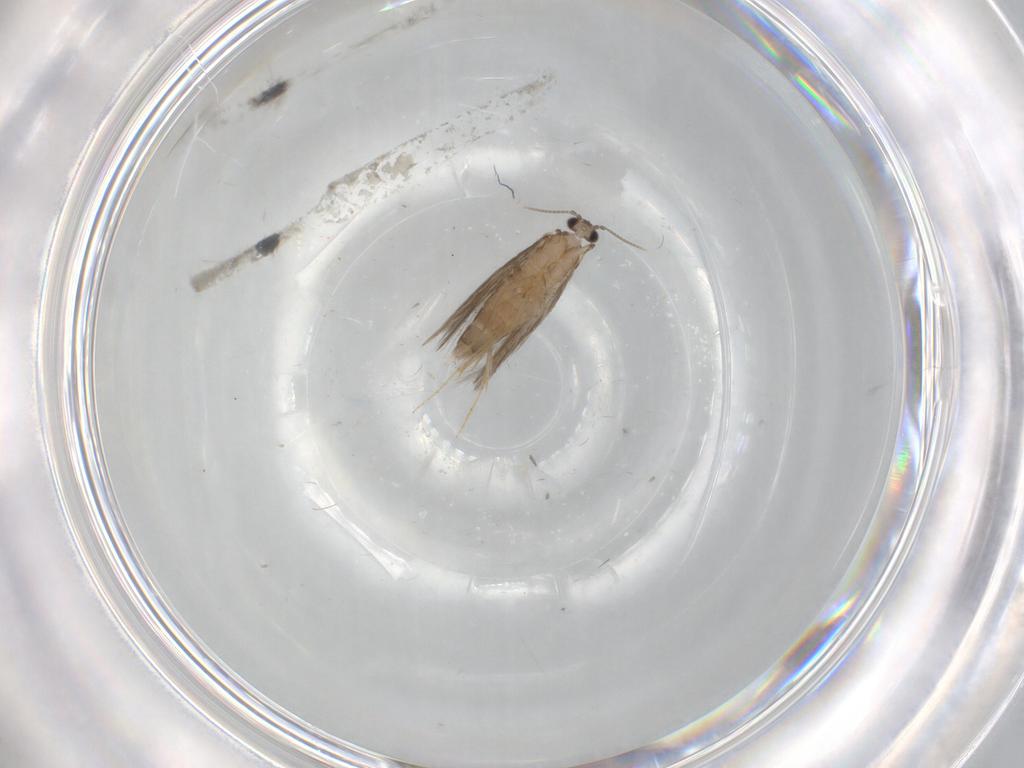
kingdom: Animalia
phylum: Arthropoda
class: Insecta
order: Trichoptera
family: Hydroptilidae
